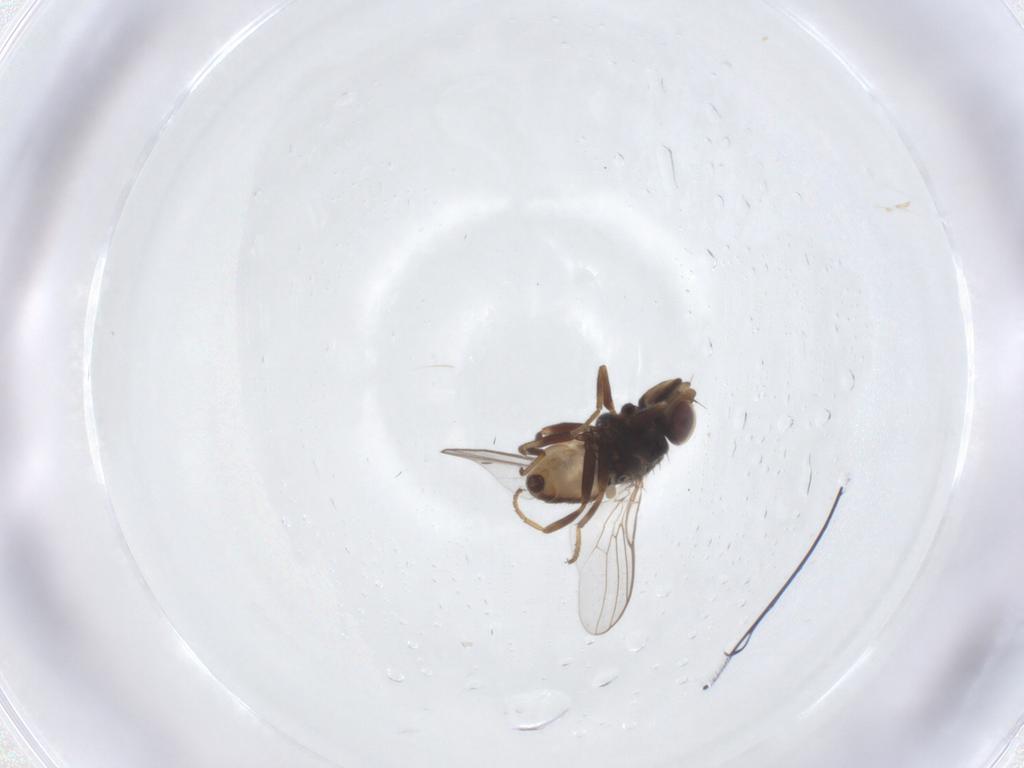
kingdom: Animalia
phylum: Arthropoda
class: Insecta
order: Diptera
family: Chloropidae
